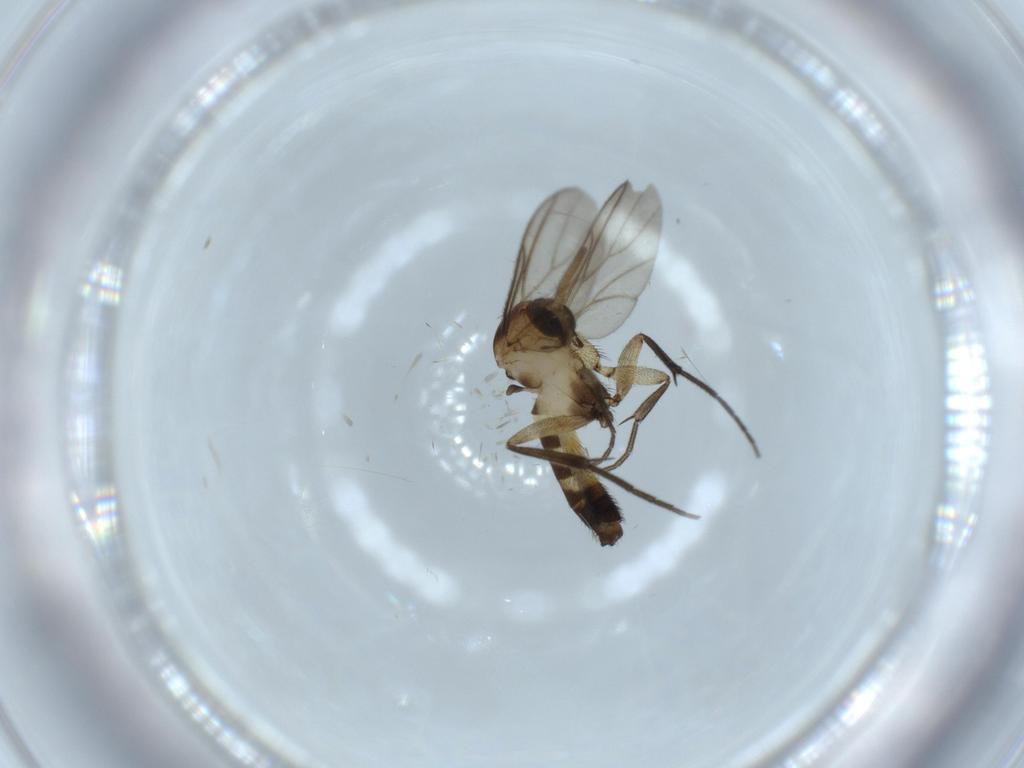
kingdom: Animalia
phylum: Arthropoda
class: Insecta
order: Diptera
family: Mycetophilidae
